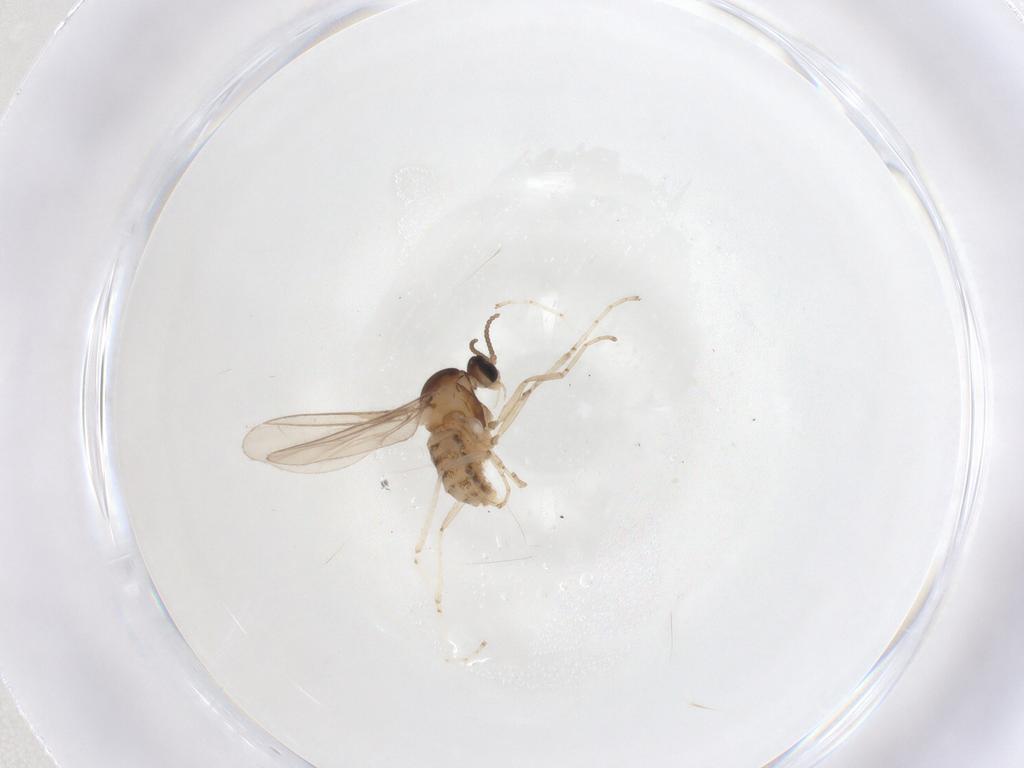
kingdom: Animalia
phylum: Arthropoda
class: Insecta
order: Diptera
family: Cecidomyiidae
